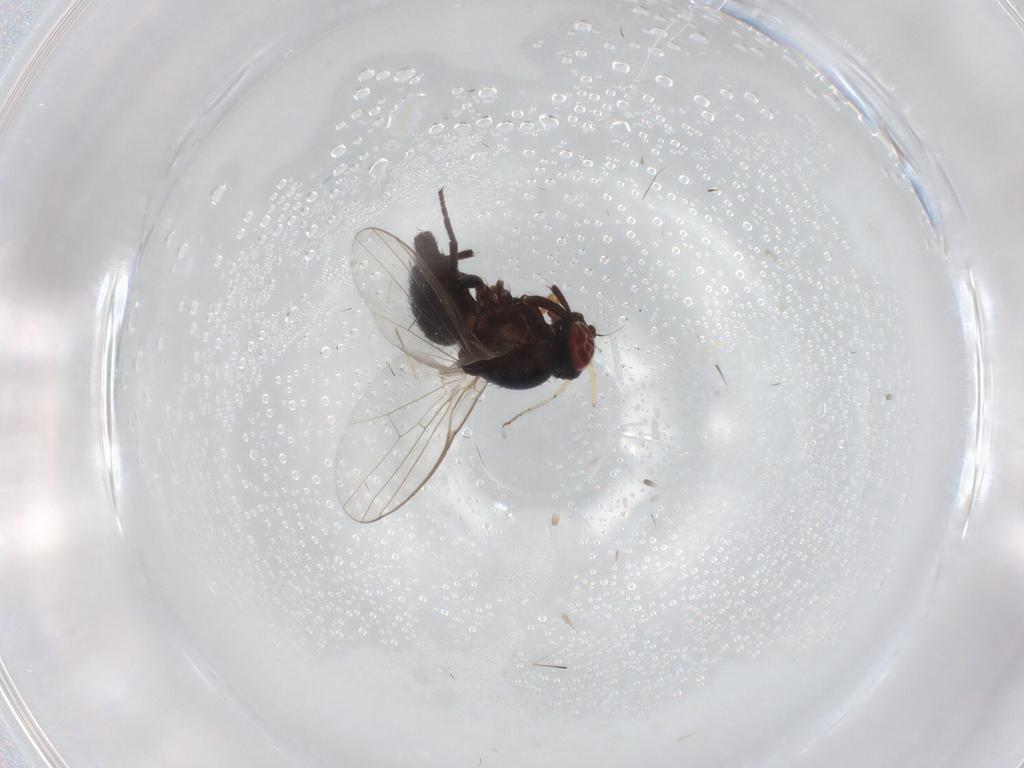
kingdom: Animalia
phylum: Arthropoda
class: Insecta
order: Diptera
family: Agromyzidae
